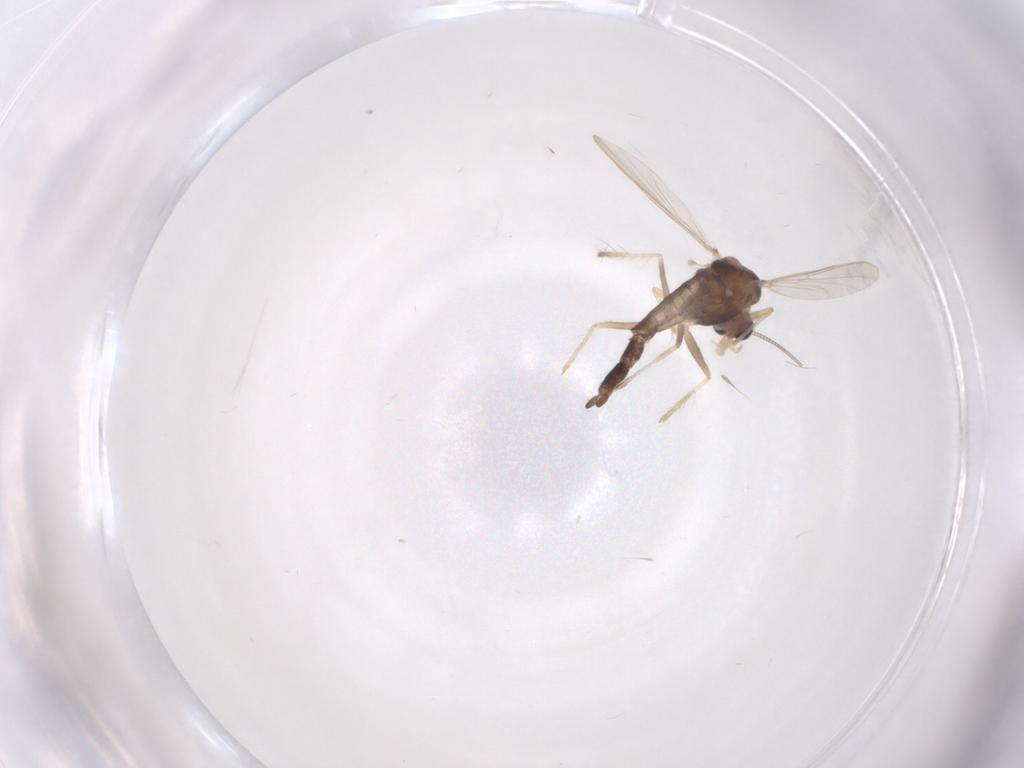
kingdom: Animalia
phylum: Arthropoda
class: Insecta
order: Diptera
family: Chironomidae
